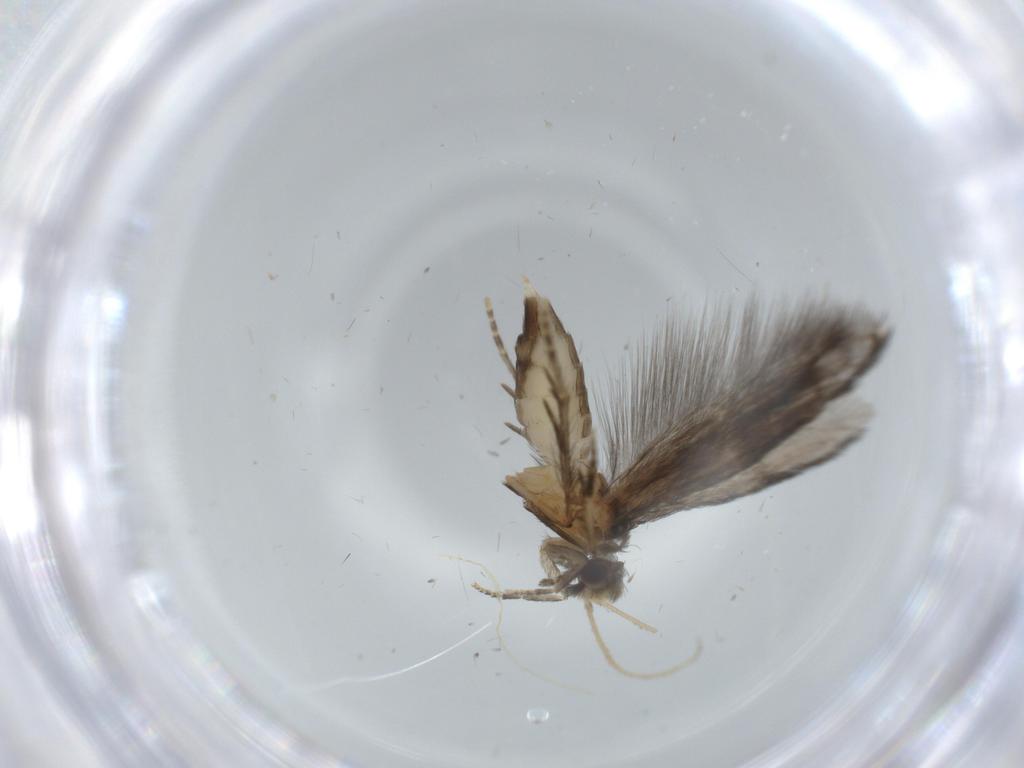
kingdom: Animalia
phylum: Arthropoda
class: Insecta
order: Trichoptera
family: Hydroptilidae
